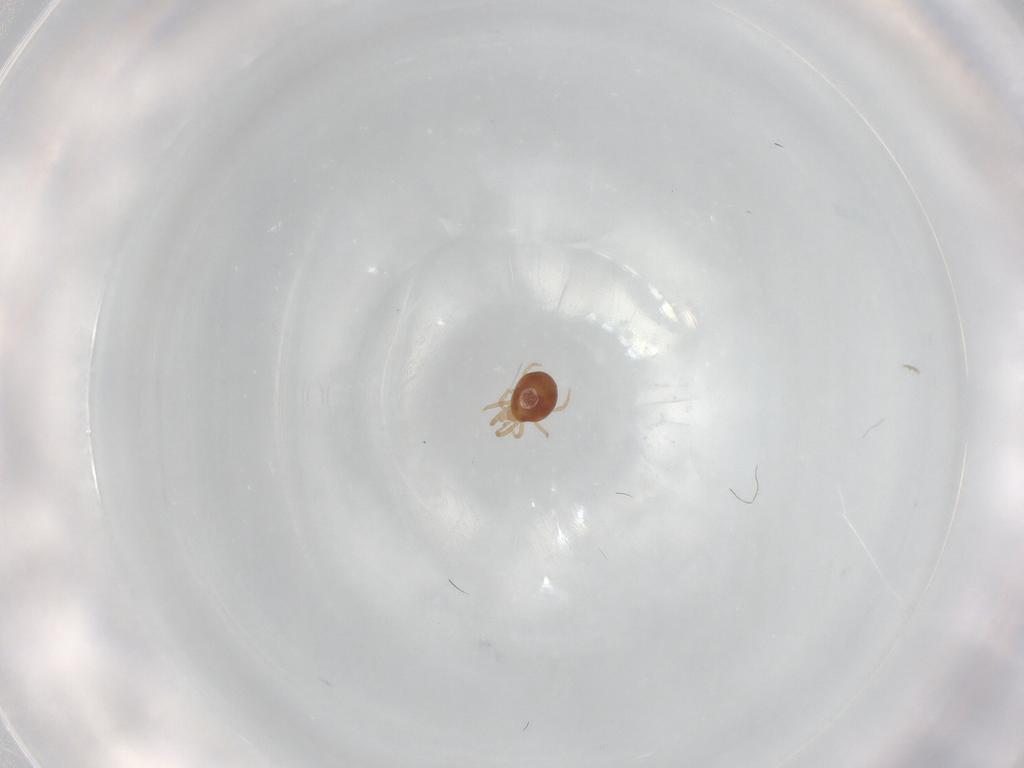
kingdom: Animalia
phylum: Arthropoda
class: Arachnida
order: Mesostigmata
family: Phytoseiidae
